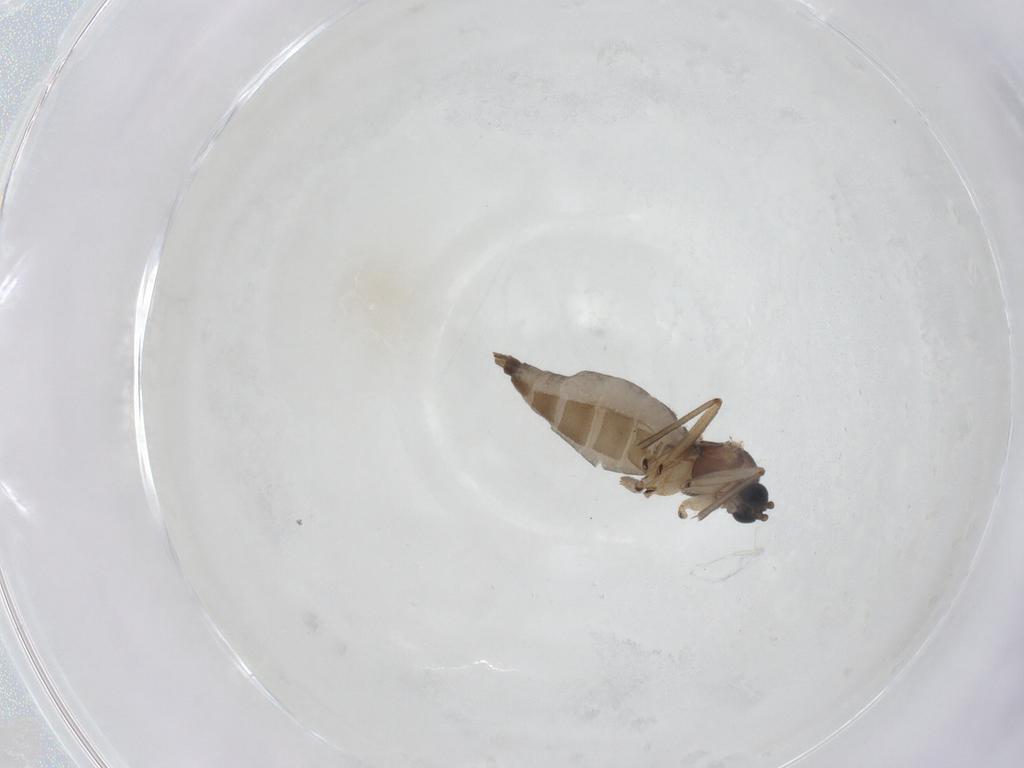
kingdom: Animalia
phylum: Arthropoda
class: Insecta
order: Diptera
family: Sciaridae
